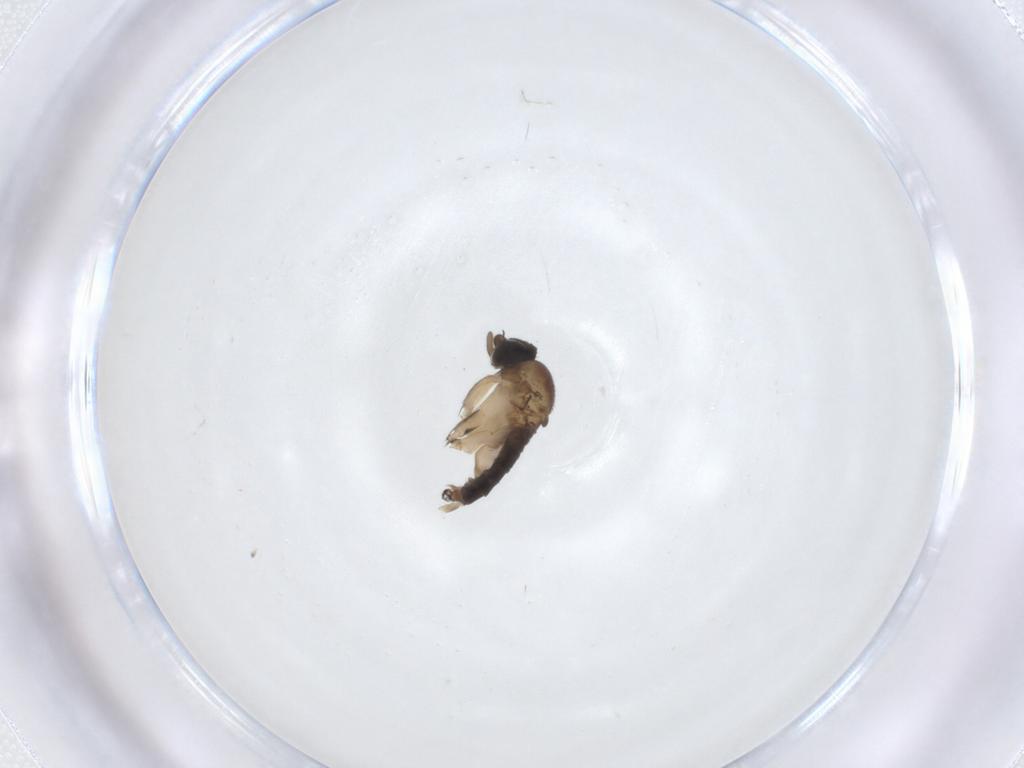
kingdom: Animalia
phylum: Arthropoda
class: Insecta
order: Diptera
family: Phoridae
